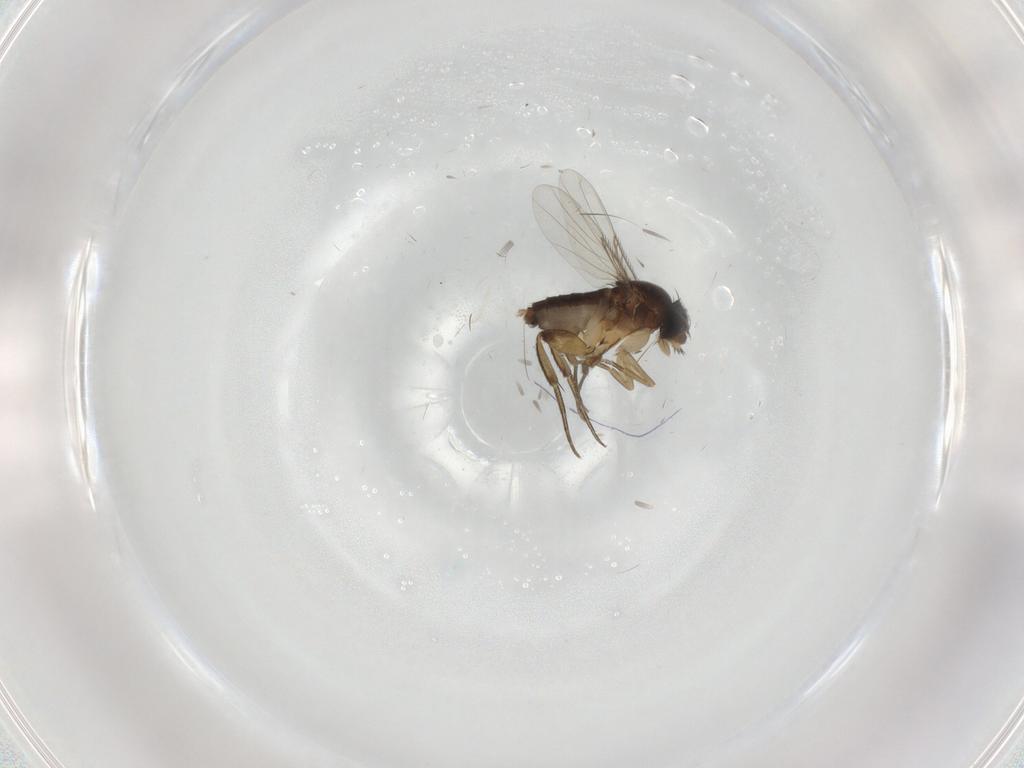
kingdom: Animalia
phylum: Arthropoda
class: Insecta
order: Diptera
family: Phoridae
